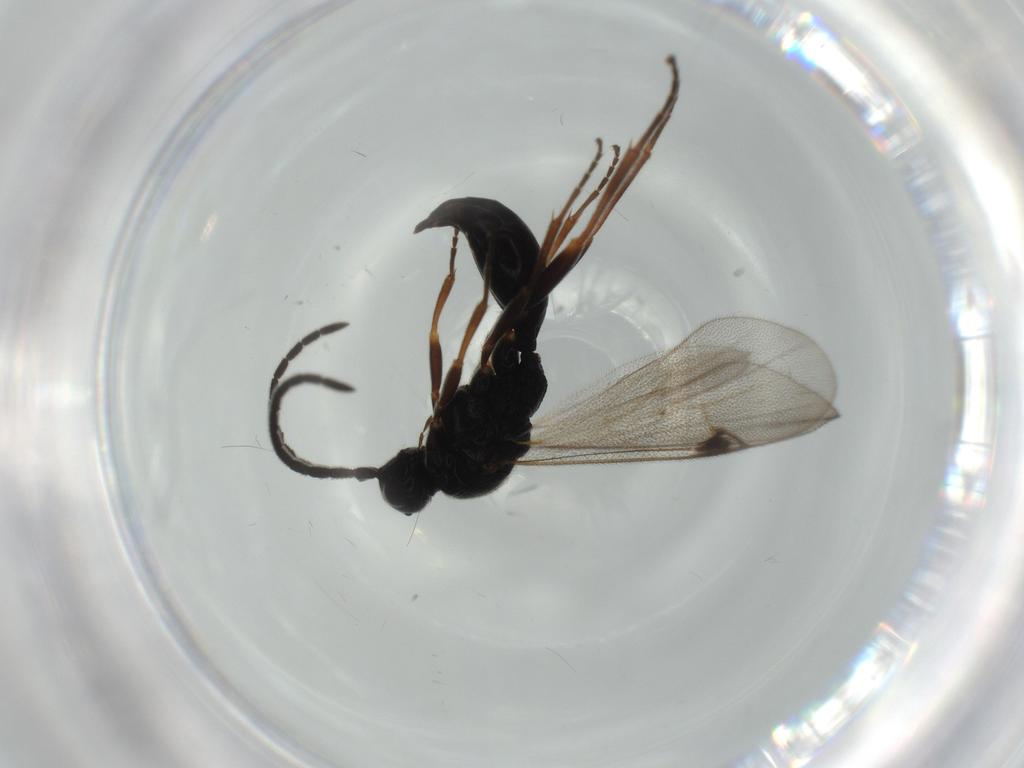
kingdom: Animalia
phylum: Arthropoda
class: Insecta
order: Hymenoptera
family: Proctotrupidae
